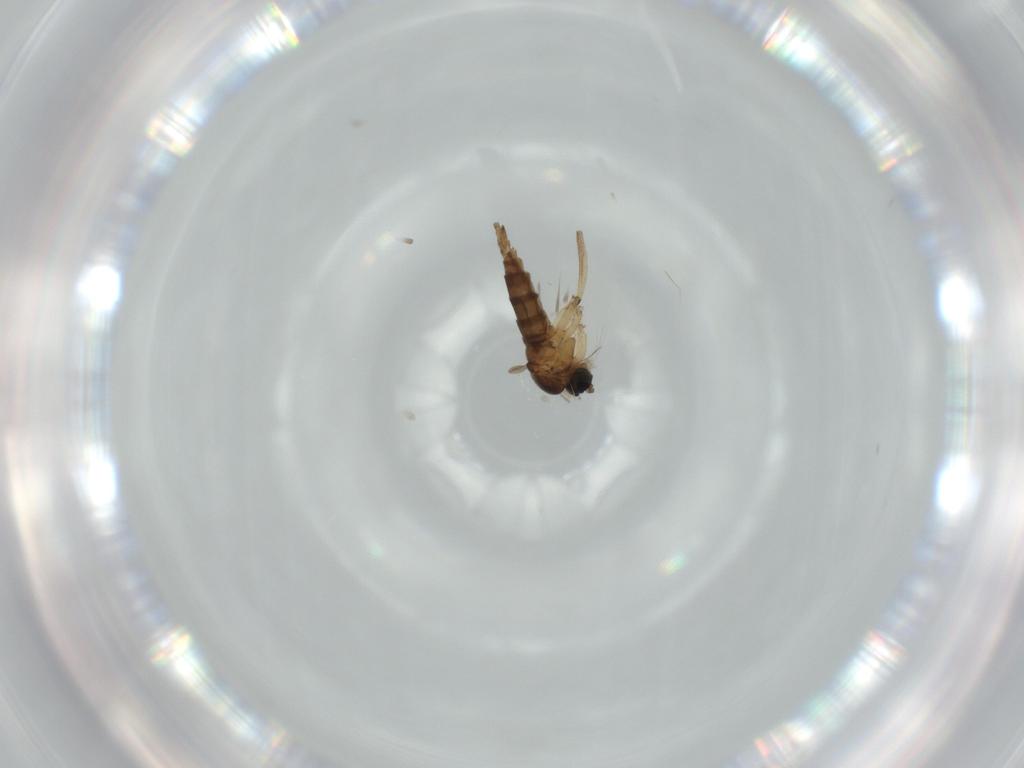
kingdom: Animalia
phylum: Arthropoda
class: Insecta
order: Diptera
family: Sciaridae
